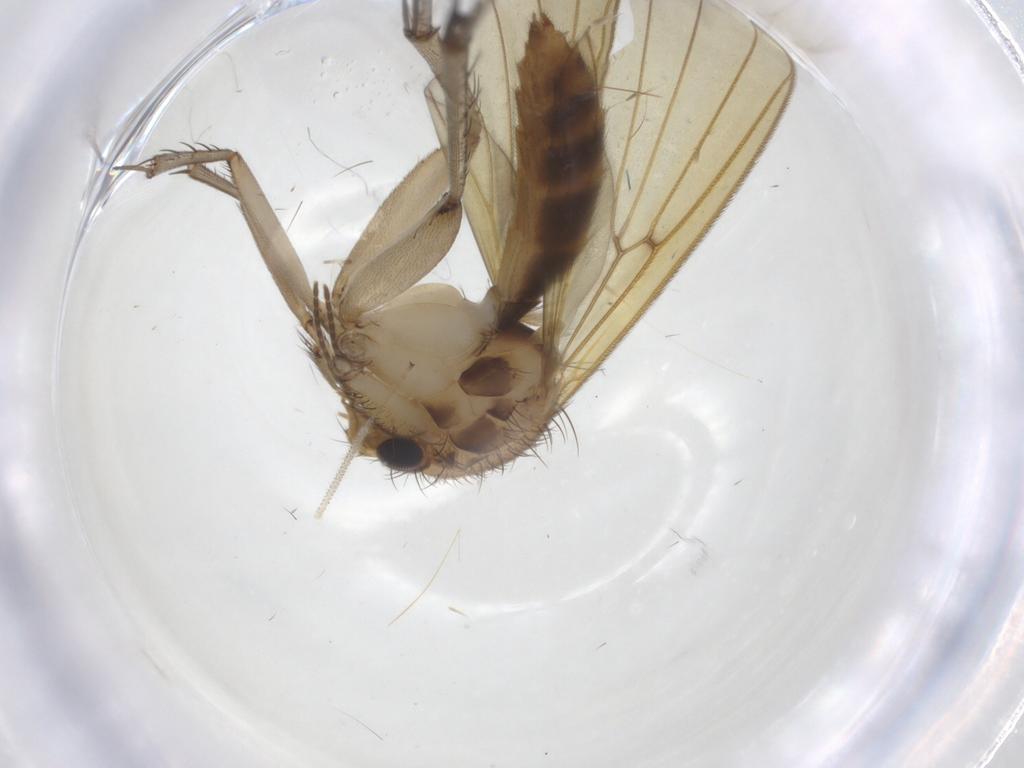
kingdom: Animalia
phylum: Arthropoda
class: Insecta
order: Diptera
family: Mycetophilidae
